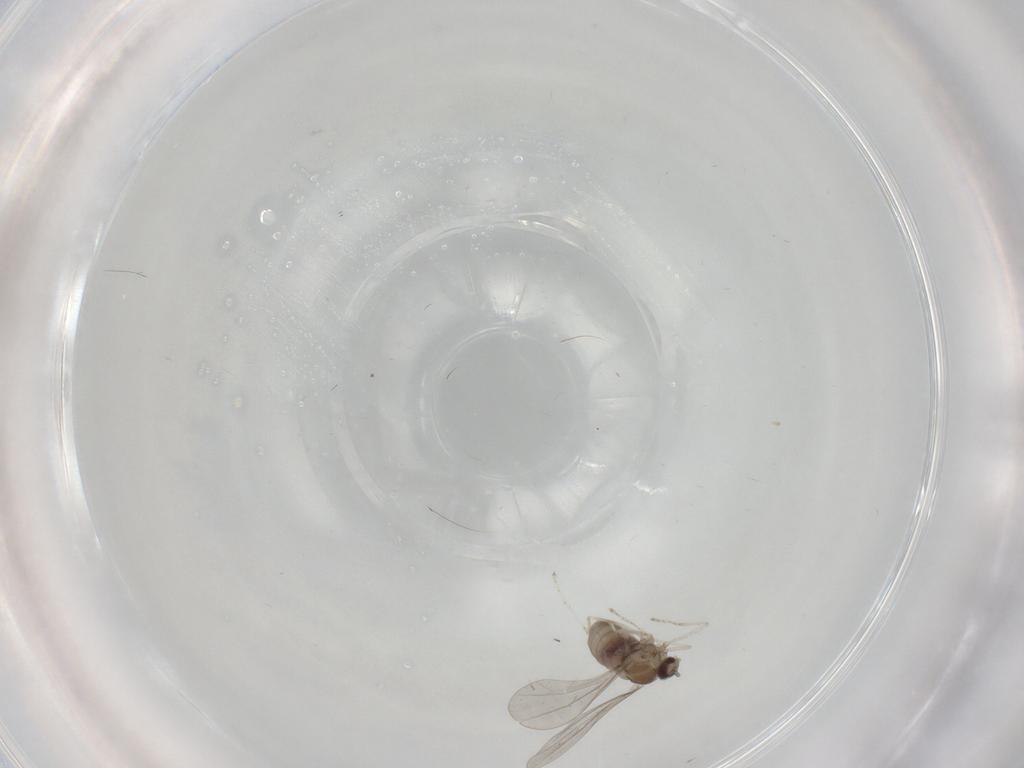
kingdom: Animalia
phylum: Arthropoda
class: Insecta
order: Diptera
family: Cecidomyiidae
